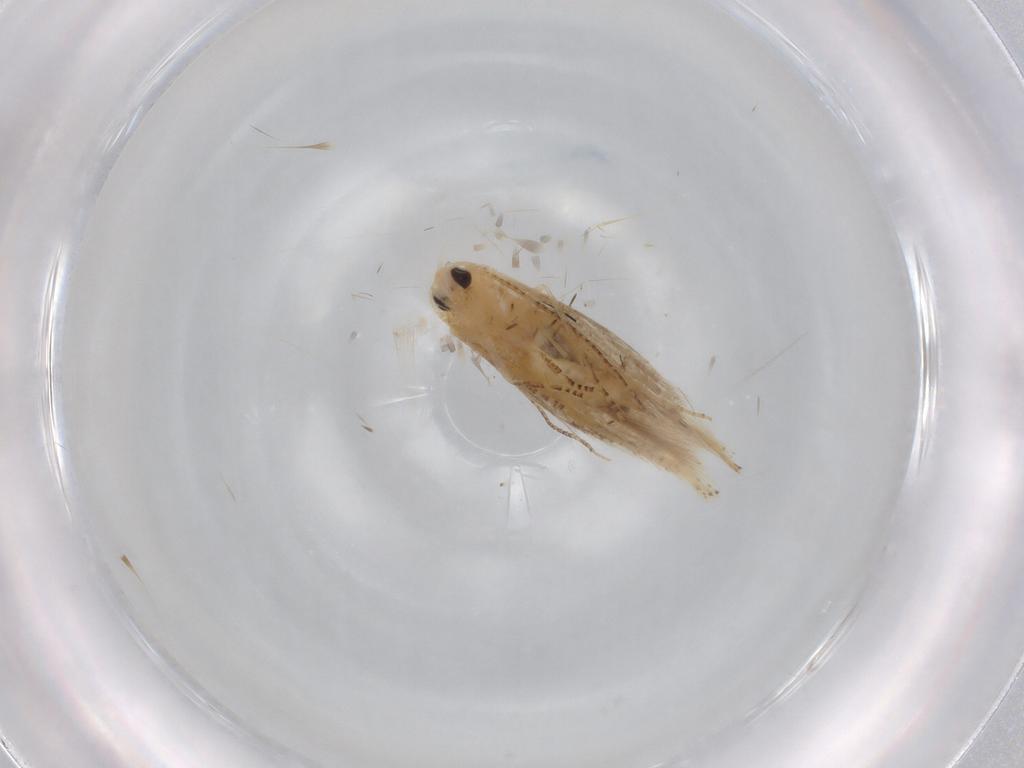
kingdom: Animalia
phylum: Arthropoda
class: Insecta
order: Lepidoptera
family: Bucculatricidae
